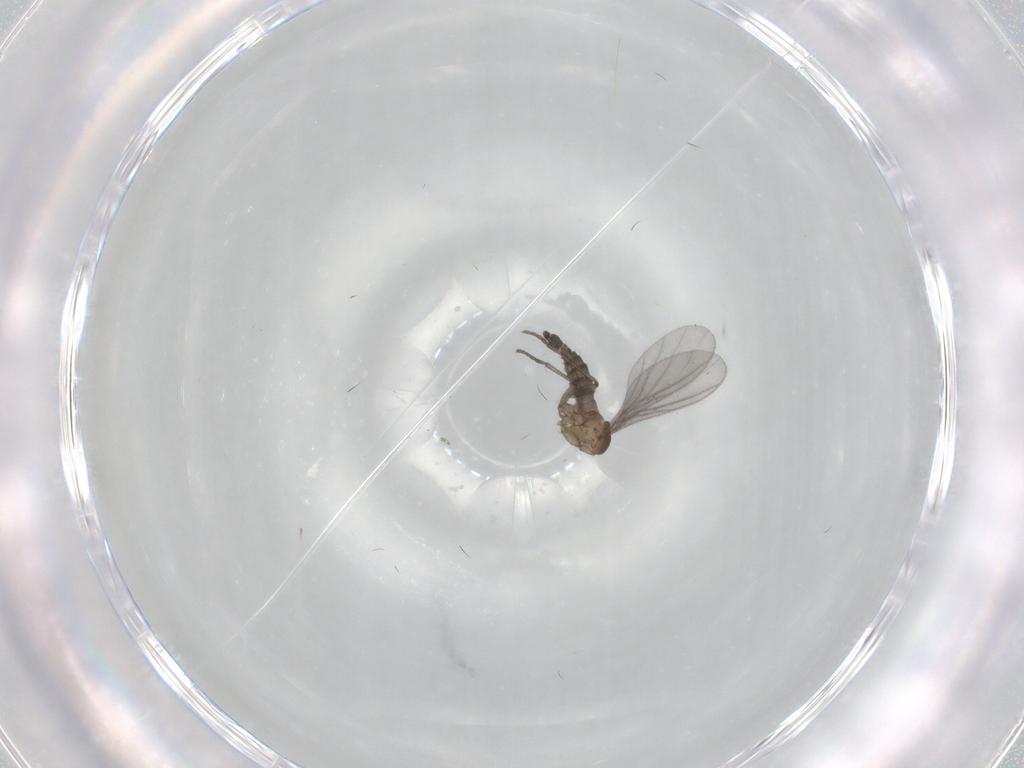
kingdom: Animalia
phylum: Arthropoda
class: Insecta
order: Diptera
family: Sciaridae
